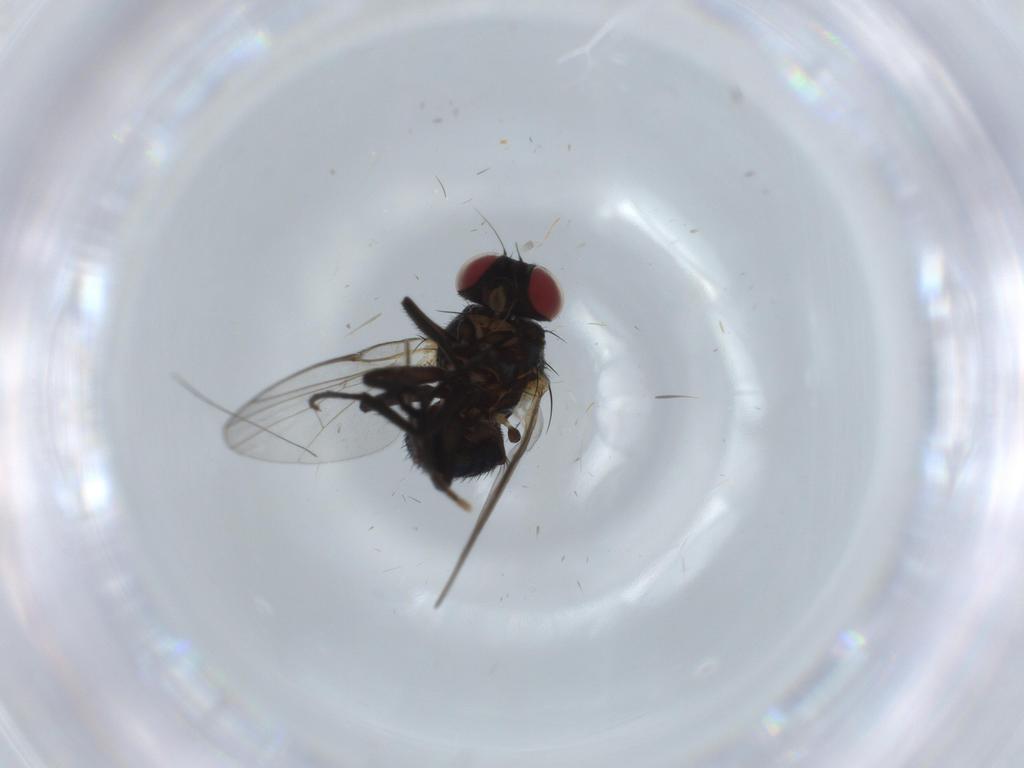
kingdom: Animalia
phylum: Arthropoda
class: Insecta
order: Diptera
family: Agromyzidae
